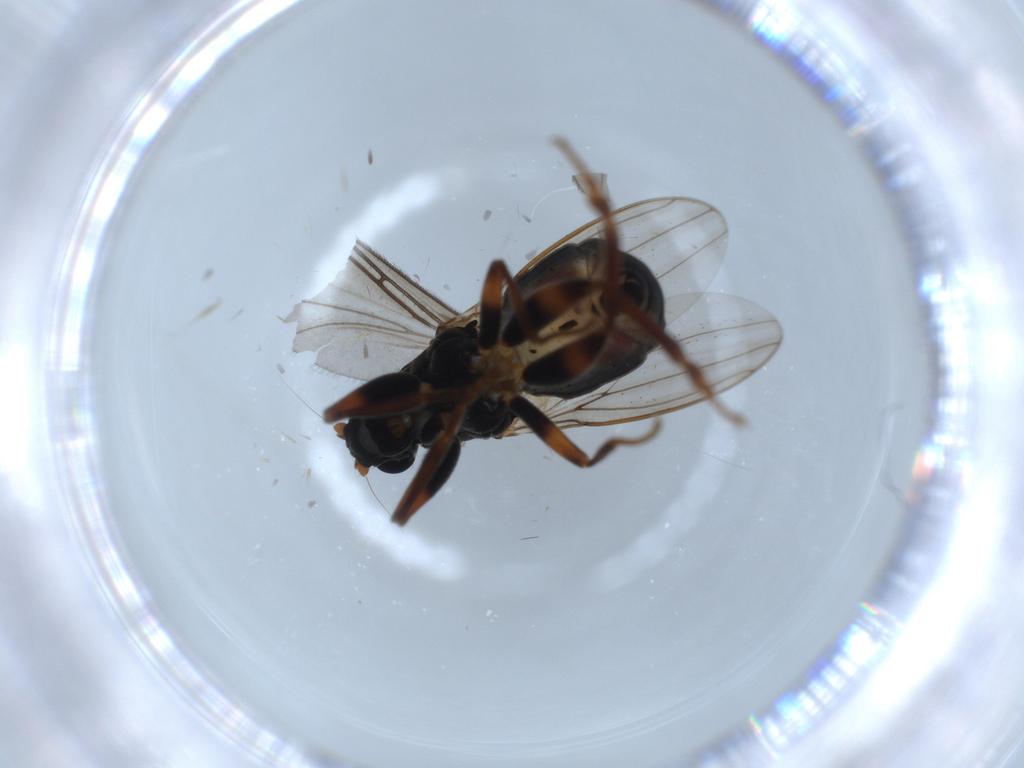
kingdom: Animalia
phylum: Arthropoda
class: Insecta
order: Diptera
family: Sphaeroceridae
